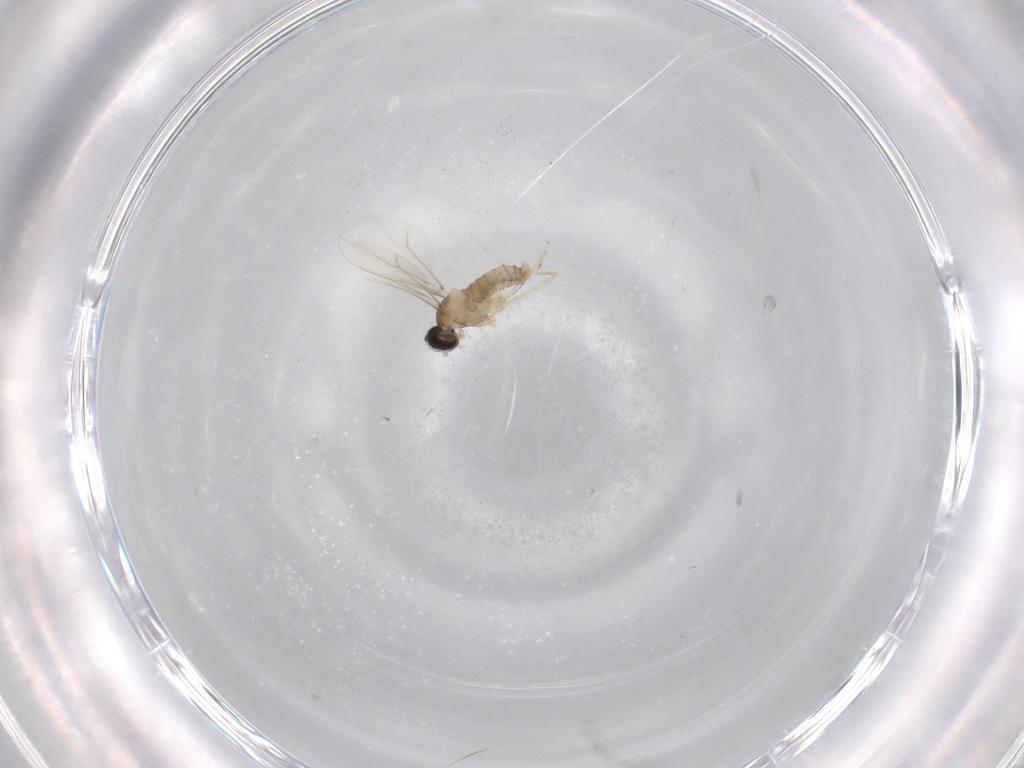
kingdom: Animalia
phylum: Arthropoda
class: Insecta
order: Diptera
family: Cecidomyiidae
